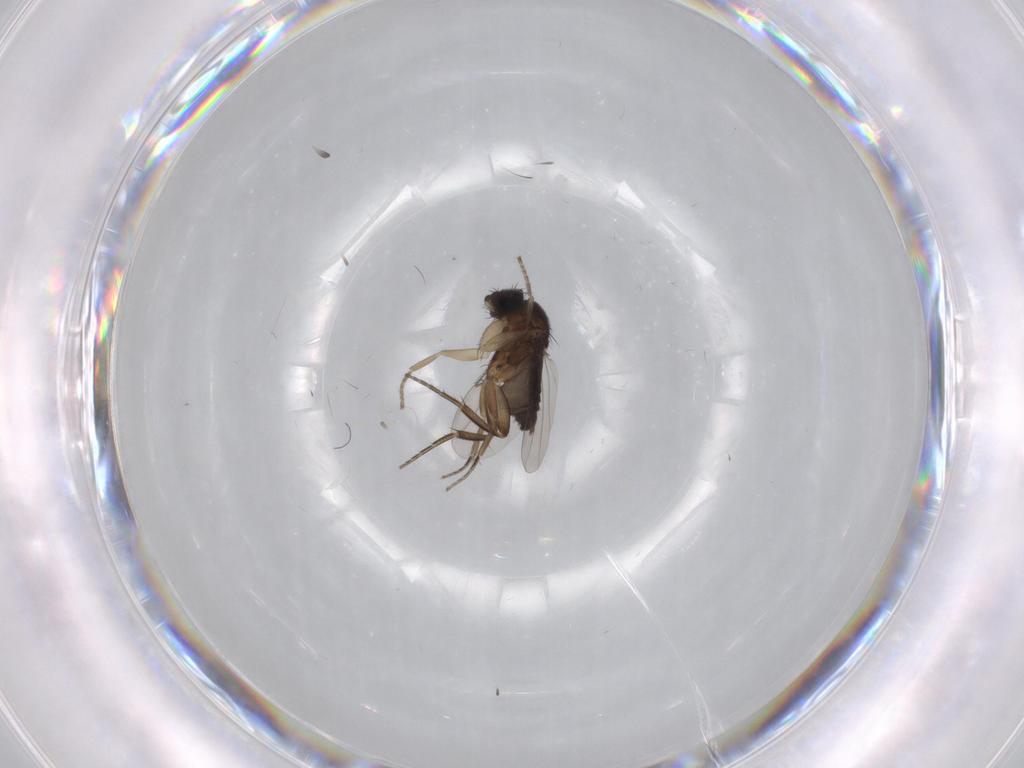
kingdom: Animalia
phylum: Arthropoda
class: Insecta
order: Diptera
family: Phoridae
